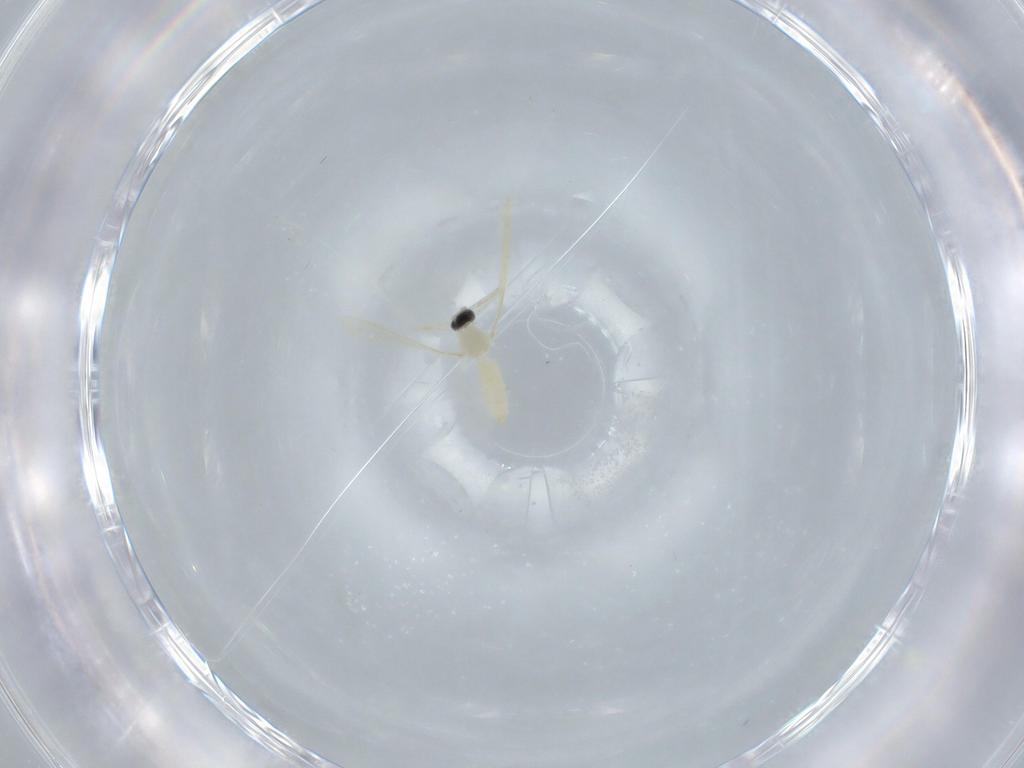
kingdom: Animalia
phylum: Arthropoda
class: Insecta
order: Diptera
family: Cecidomyiidae
